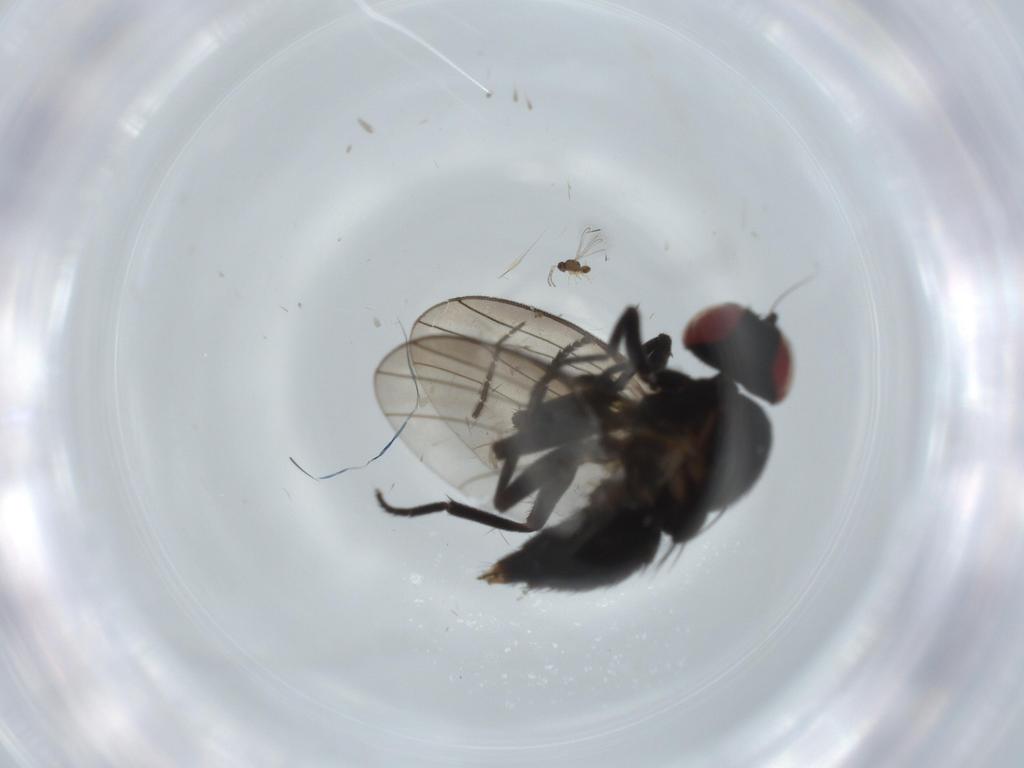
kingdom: Animalia
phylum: Arthropoda
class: Insecta
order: Diptera
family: Agromyzidae
